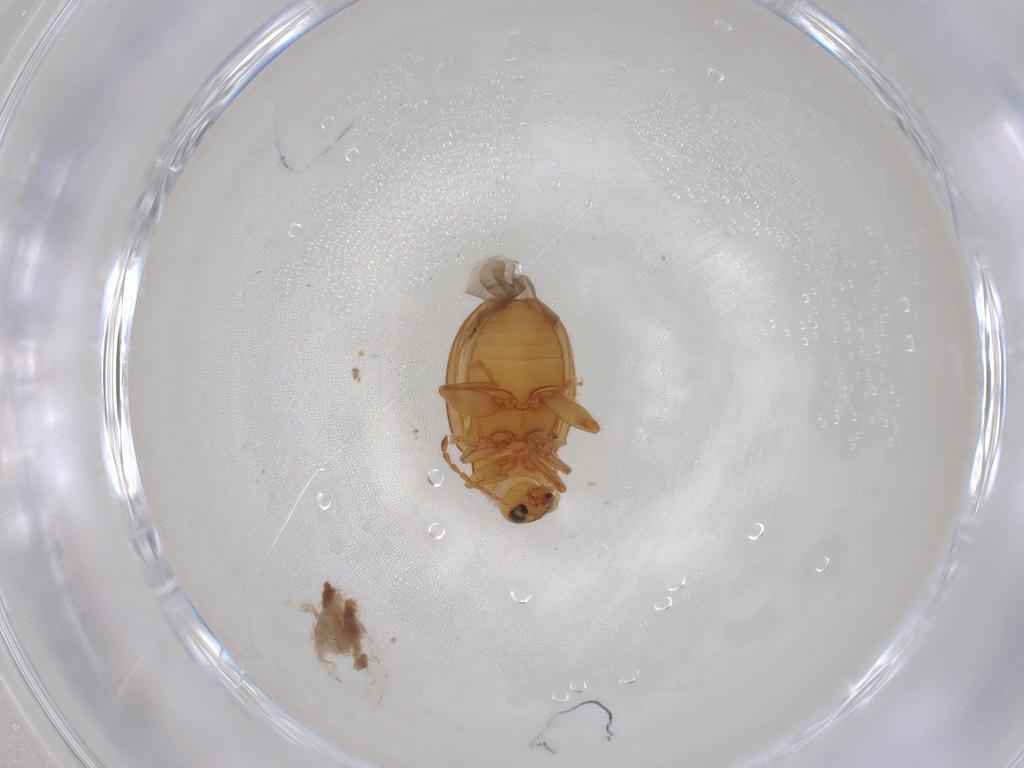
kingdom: Animalia
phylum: Arthropoda
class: Insecta
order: Coleoptera
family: Chrysomelidae
